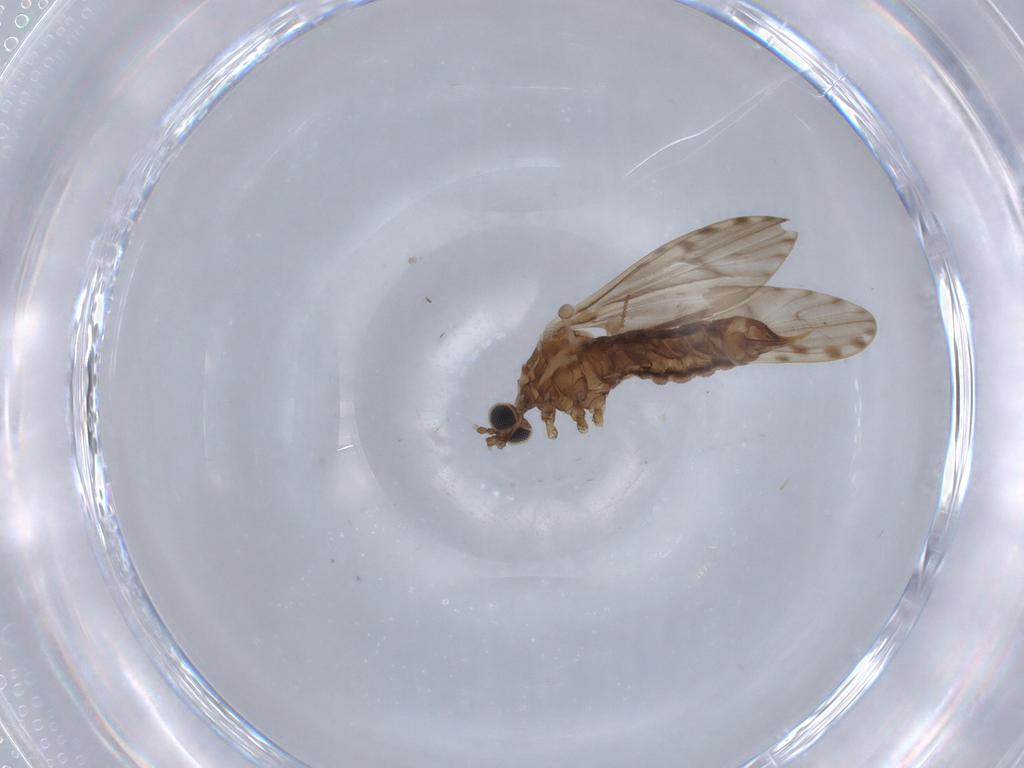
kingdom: Animalia
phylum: Arthropoda
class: Insecta
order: Diptera
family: Limoniidae
